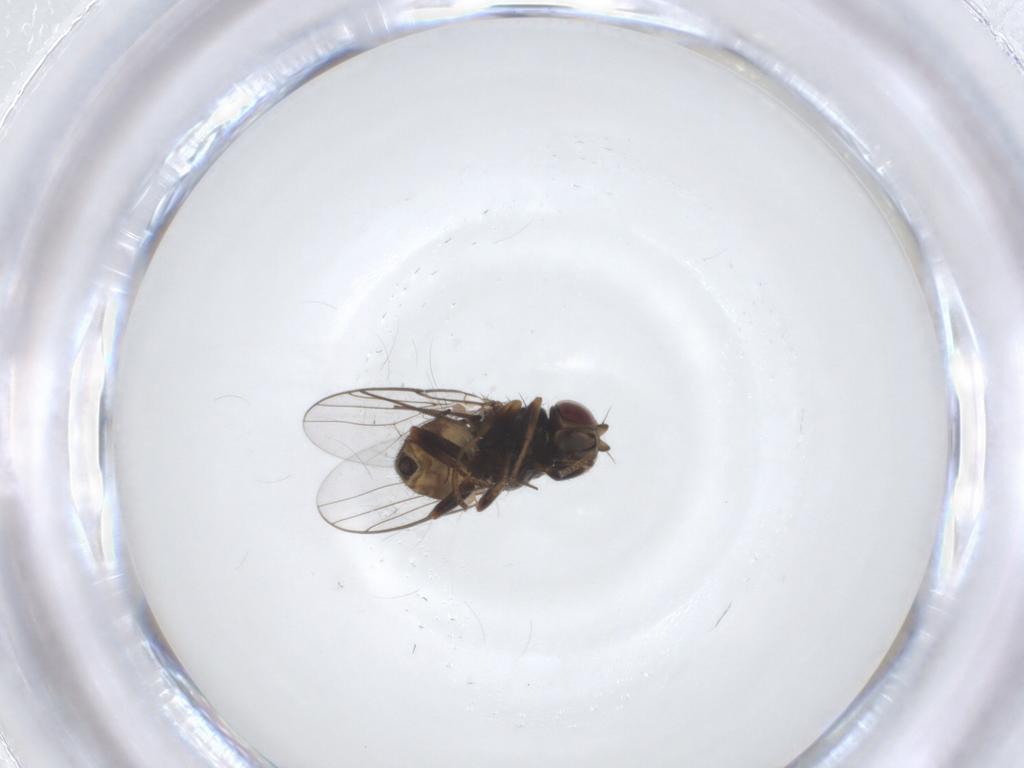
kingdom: Animalia
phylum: Arthropoda
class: Insecta
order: Diptera
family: Chloropidae
